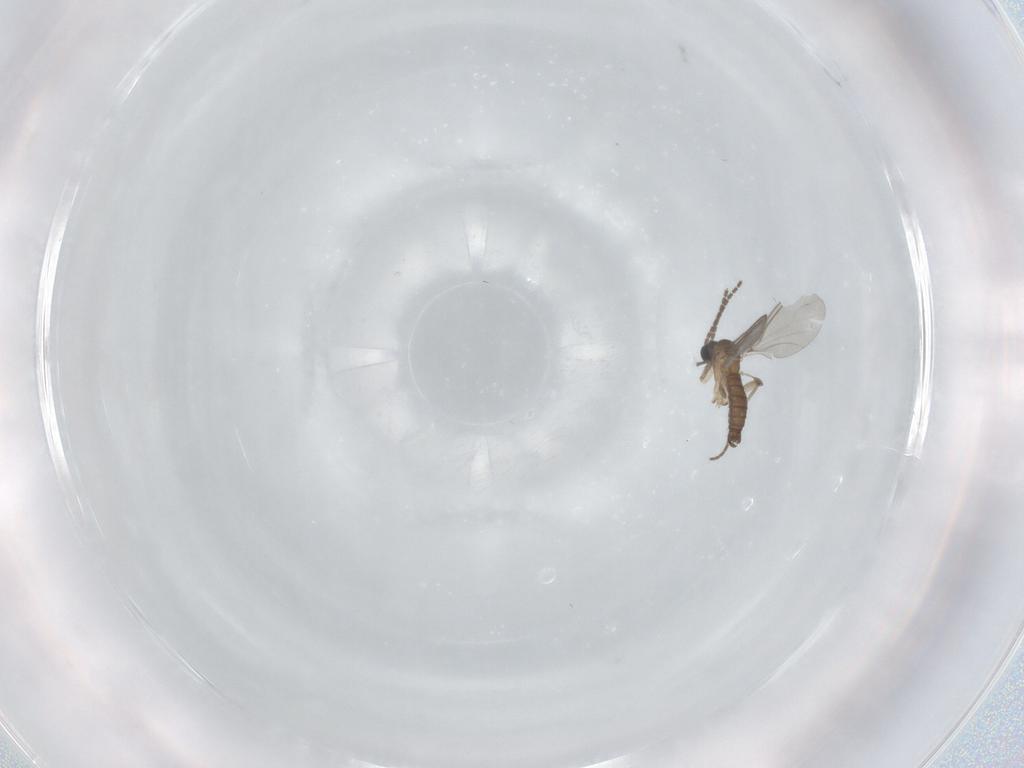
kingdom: Animalia
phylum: Arthropoda
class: Insecta
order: Diptera
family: Sciaridae
